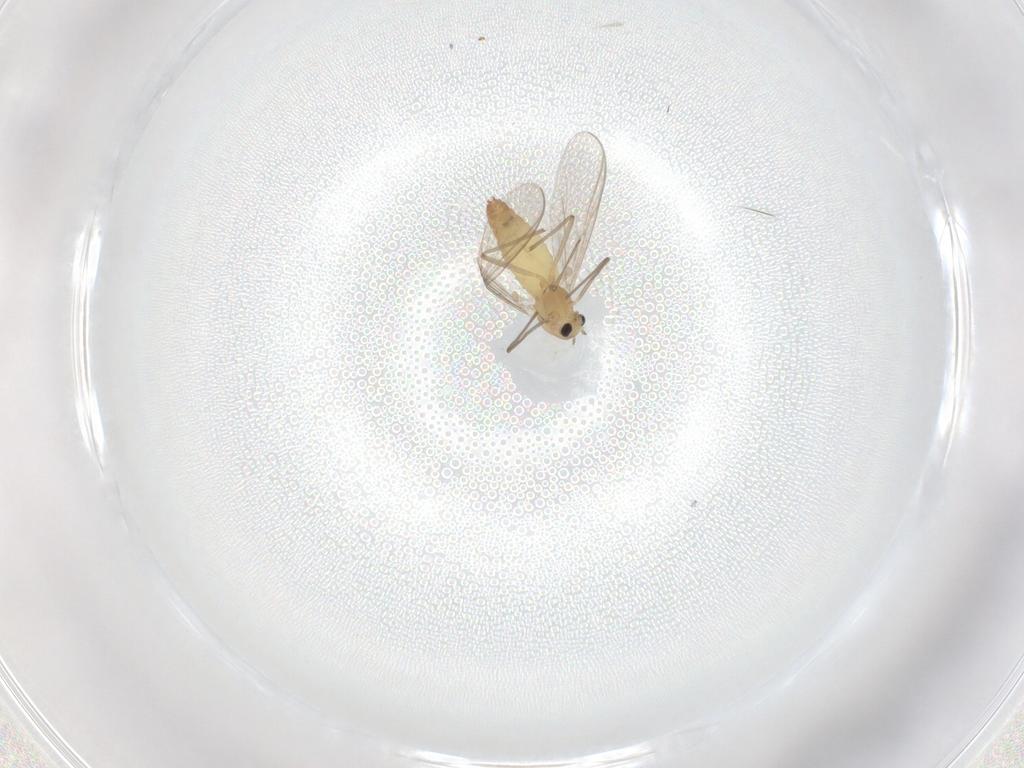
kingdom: Animalia
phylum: Arthropoda
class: Insecta
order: Diptera
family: Chironomidae
